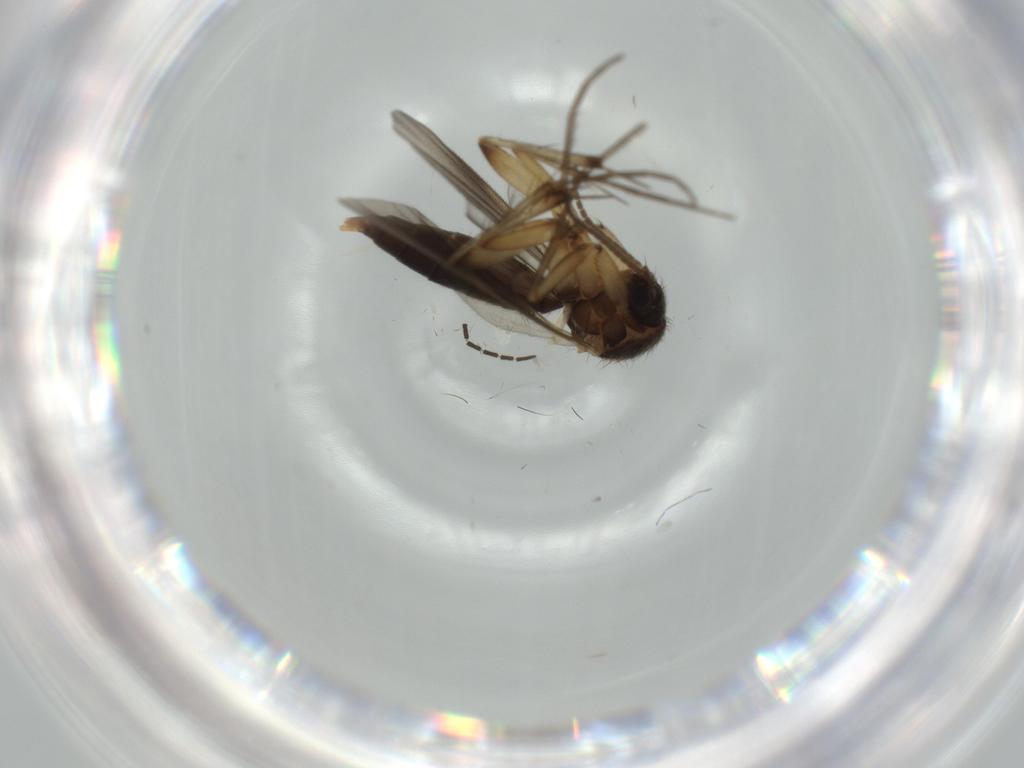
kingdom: Animalia
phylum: Arthropoda
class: Insecta
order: Diptera
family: Sciaridae
